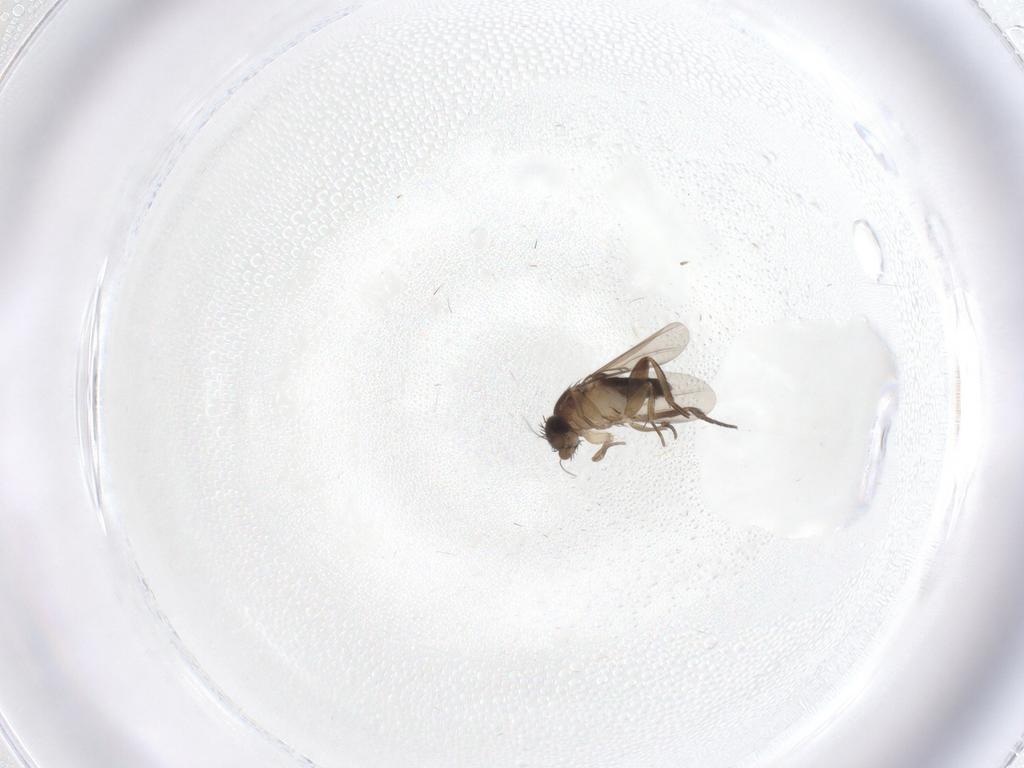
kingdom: Animalia
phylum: Arthropoda
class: Insecta
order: Diptera
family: Phoridae
